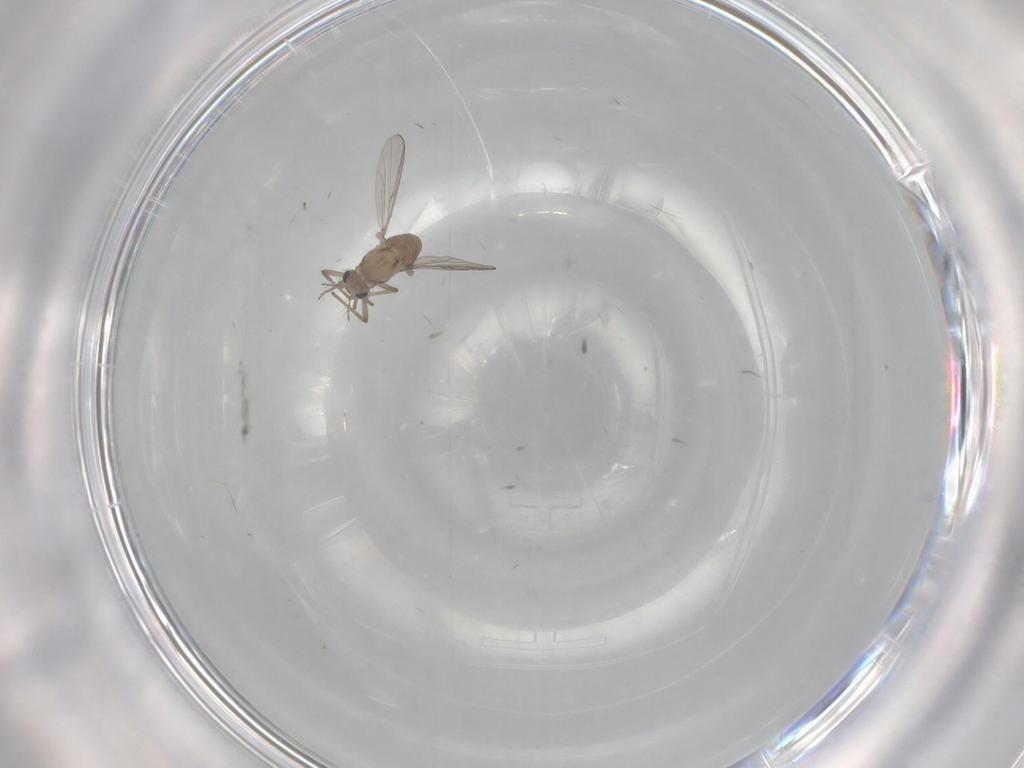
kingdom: Animalia
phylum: Arthropoda
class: Insecta
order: Diptera
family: Chironomidae
